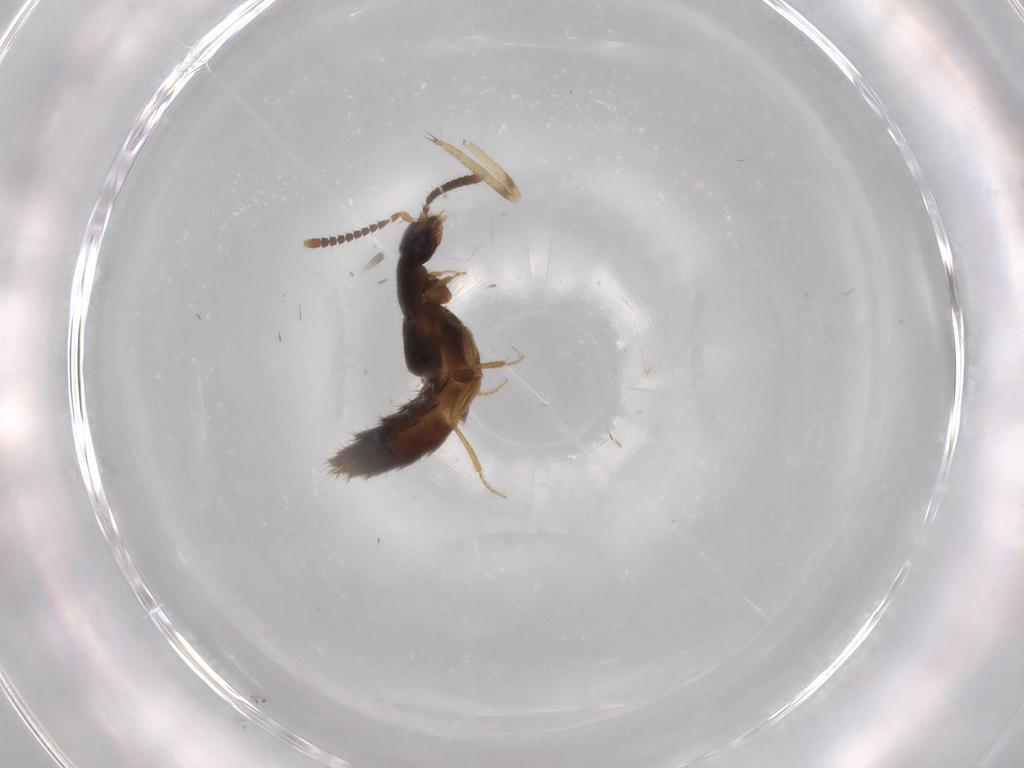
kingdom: Animalia
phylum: Arthropoda
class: Insecta
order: Coleoptera
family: Staphylinidae
